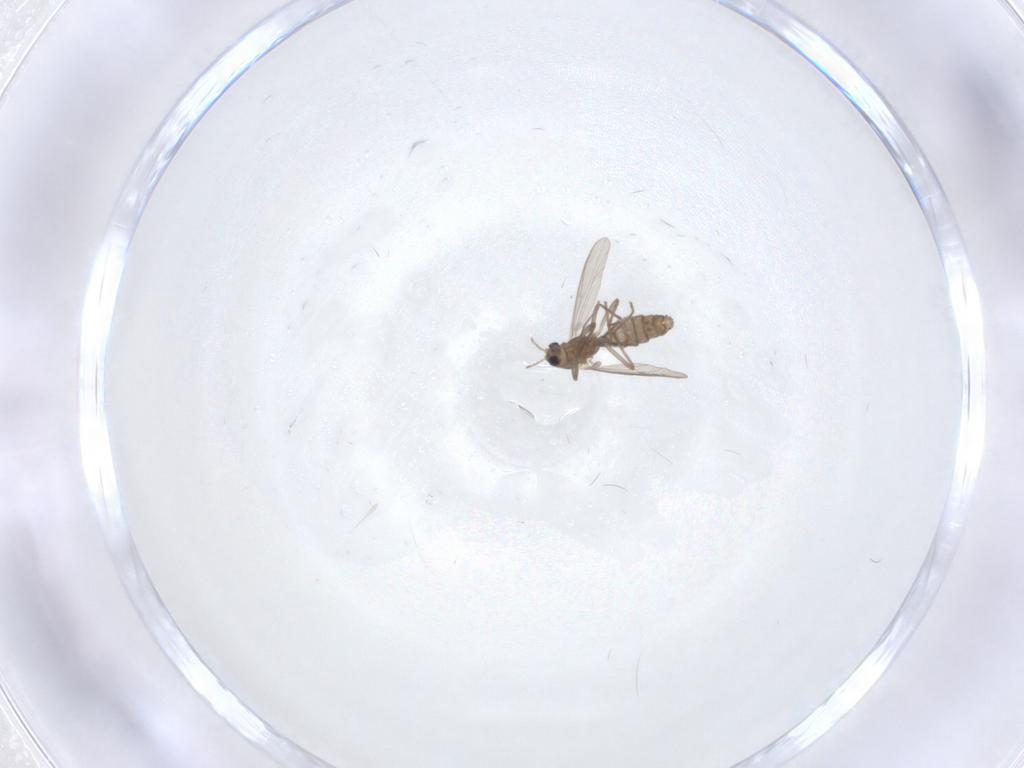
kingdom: Animalia
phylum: Arthropoda
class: Insecta
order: Diptera
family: Chironomidae
